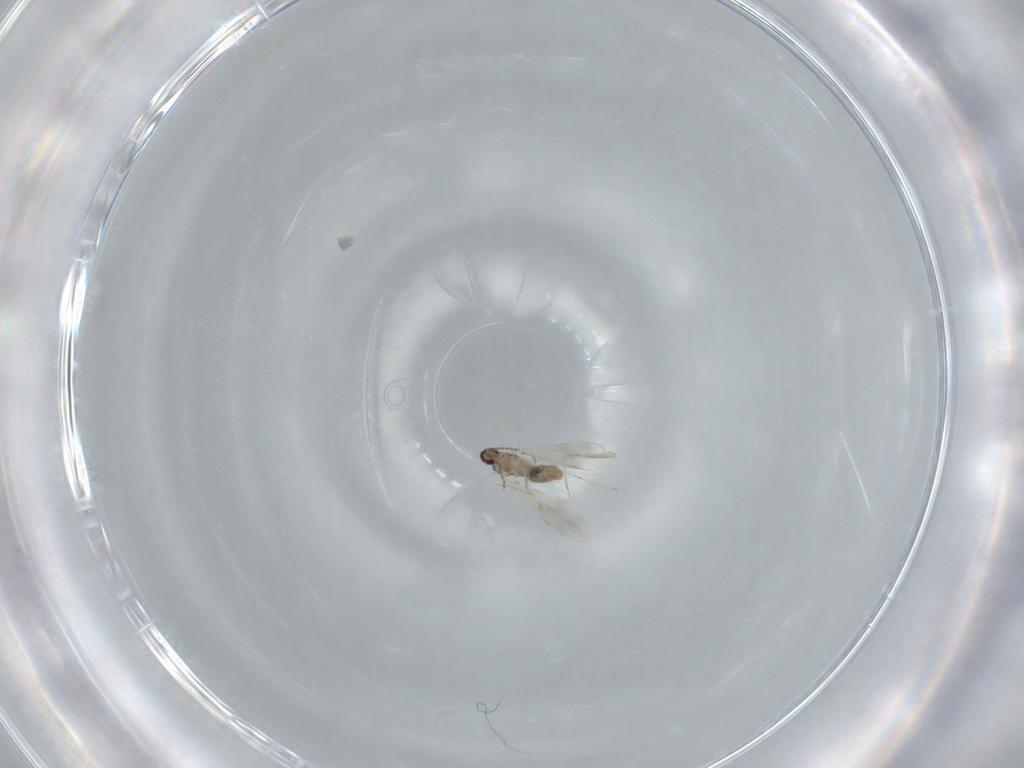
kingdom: Animalia
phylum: Arthropoda
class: Insecta
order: Diptera
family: Cecidomyiidae
